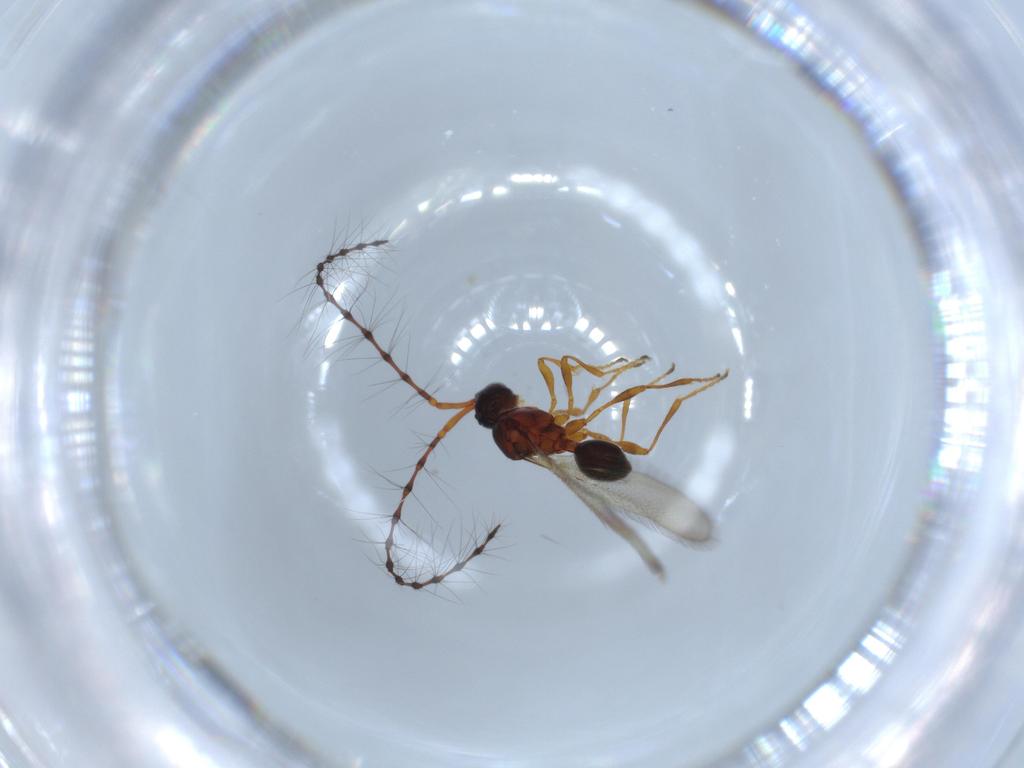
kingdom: Animalia
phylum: Arthropoda
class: Insecta
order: Hymenoptera
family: Diapriidae
